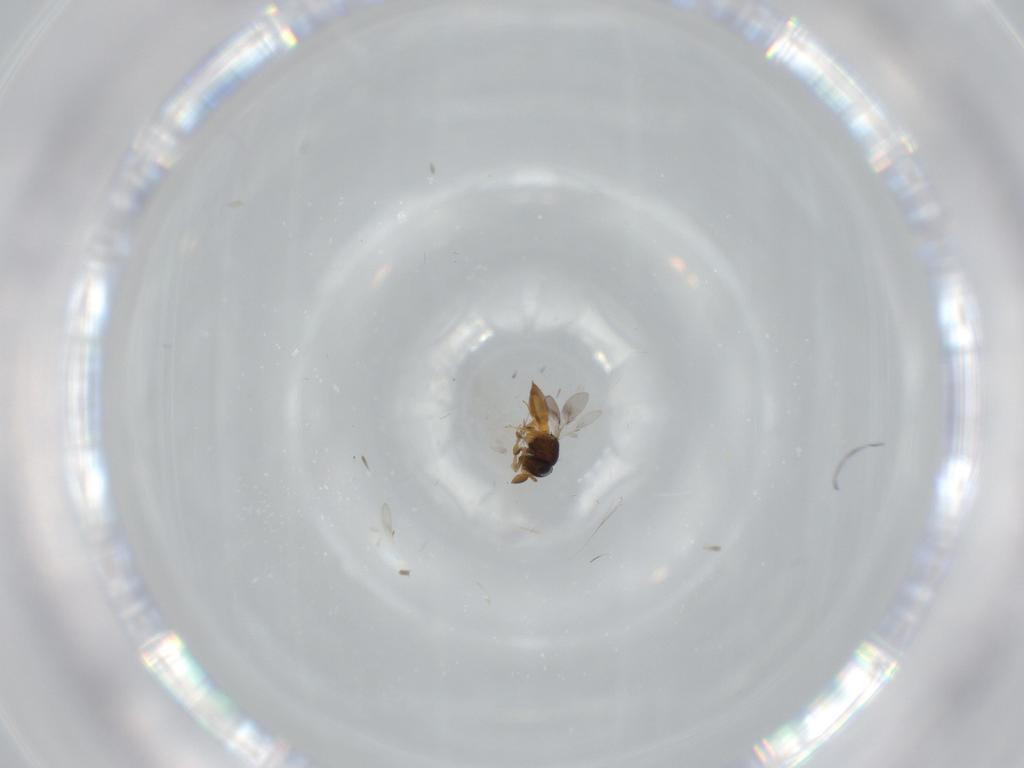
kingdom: Animalia
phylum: Arthropoda
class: Insecta
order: Hymenoptera
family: Scelionidae
